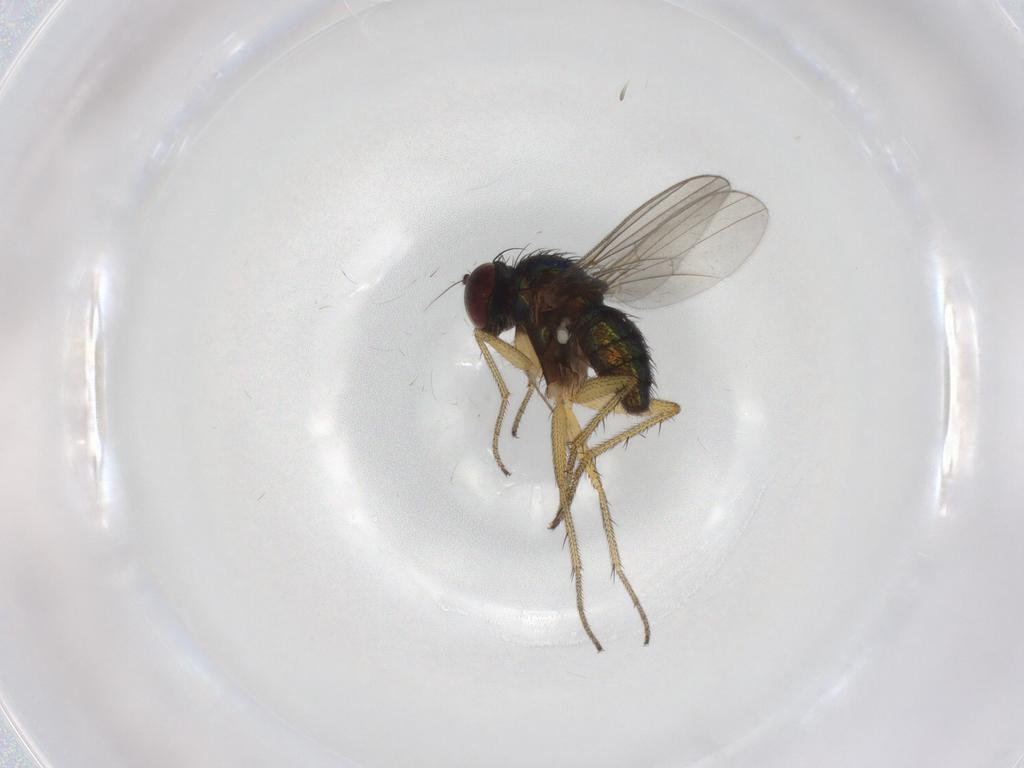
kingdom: Animalia
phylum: Arthropoda
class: Insecta
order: Diptera
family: Dolichopodidae
